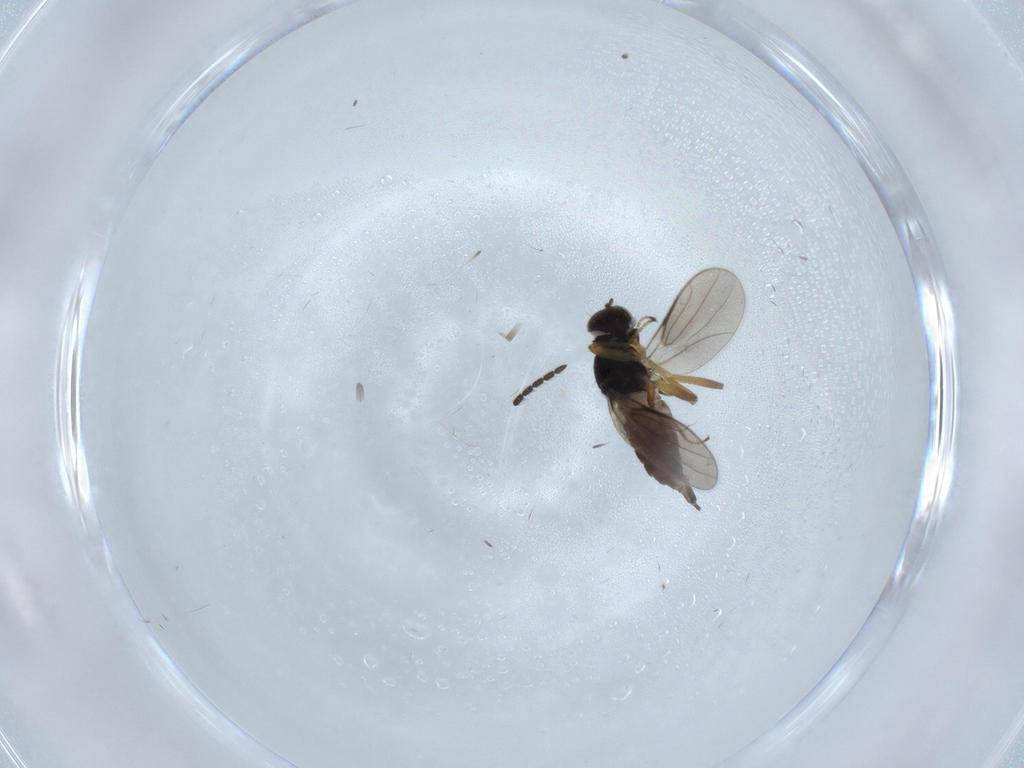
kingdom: Animalia
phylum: Arthropoda
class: Insecta
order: Diptera
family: Hybotidae
